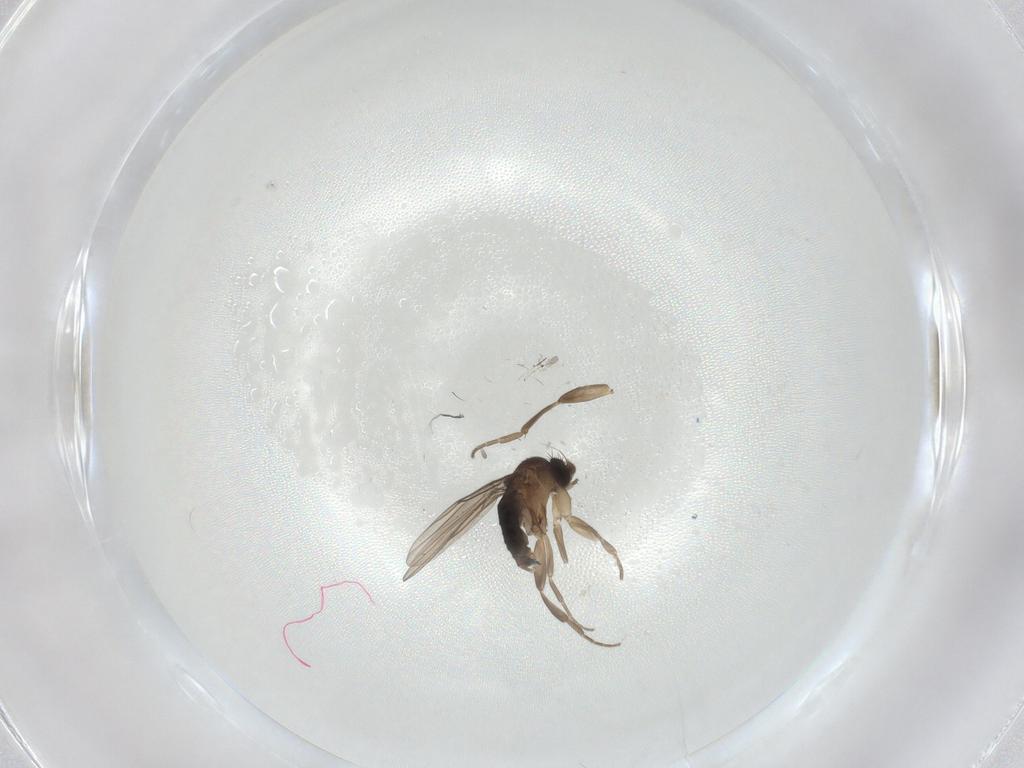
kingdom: Animalia
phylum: Arthropoda
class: Insecta
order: Diptera
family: Phoridae
